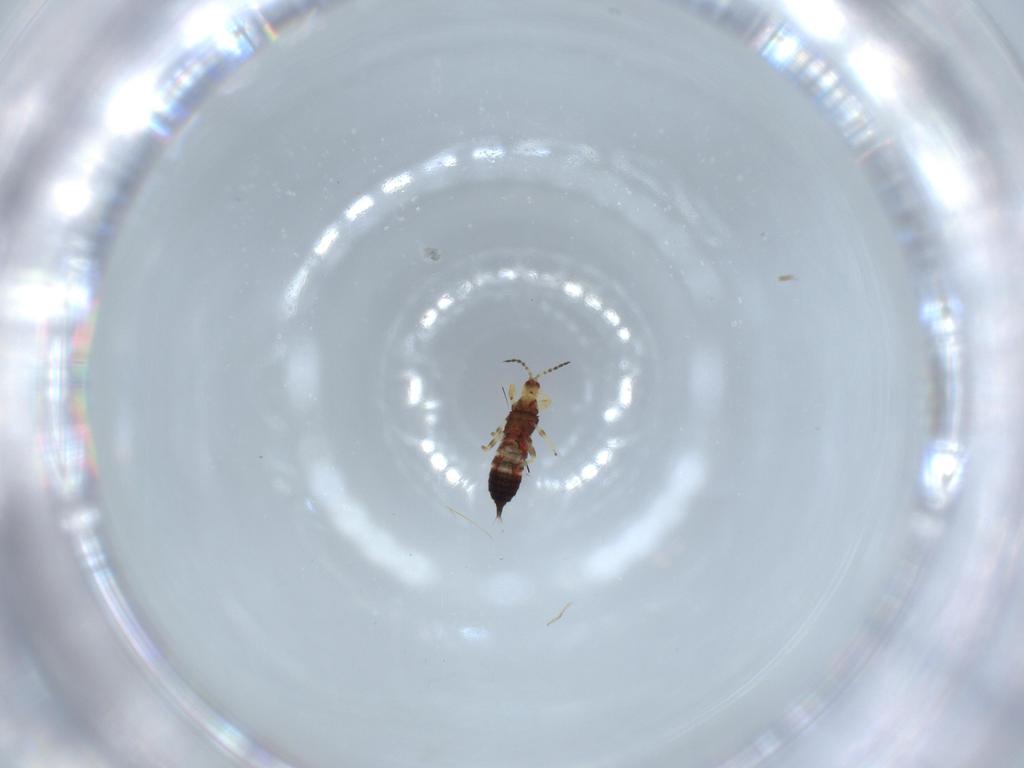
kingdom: Animalia
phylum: Arthropoda
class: Insecta
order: Thysanoptera
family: Phlaeothripidae
